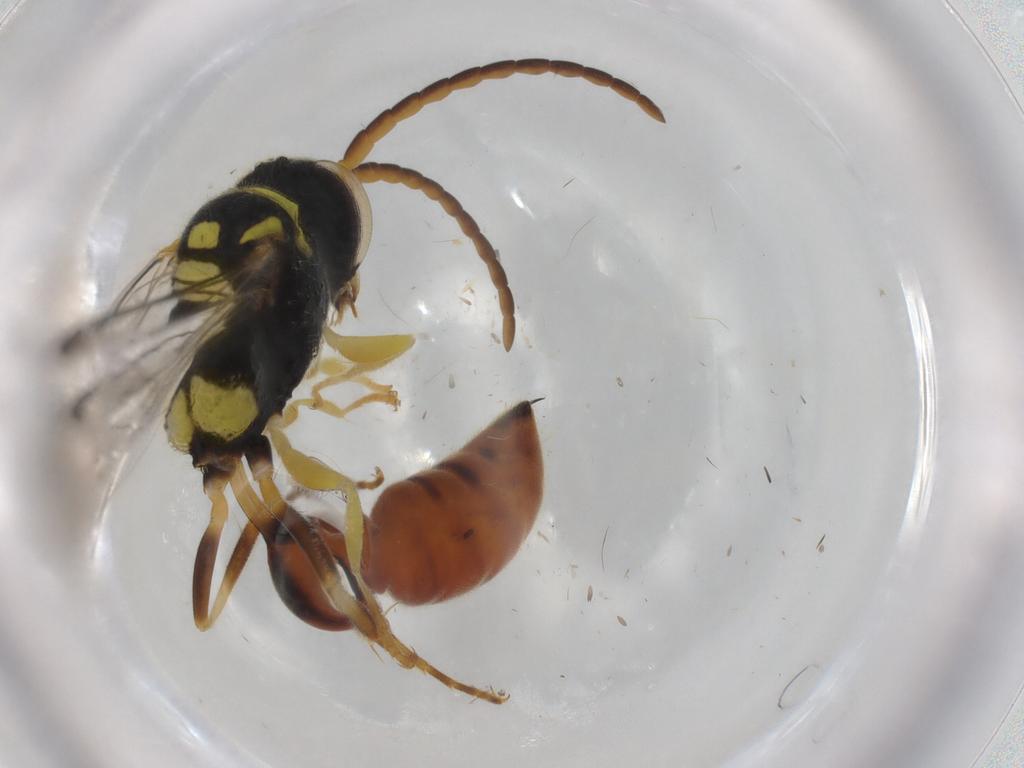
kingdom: Animalia
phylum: Arthropoda
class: Insecta
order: Hymenoptera
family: Crabronidae
